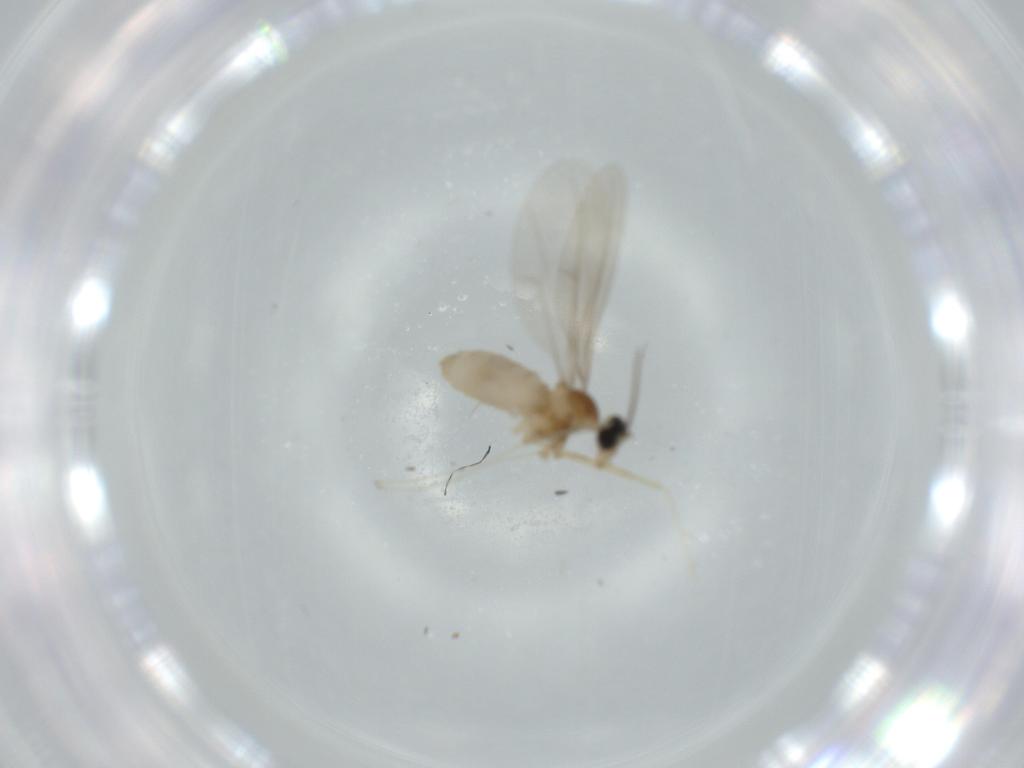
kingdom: Animalia
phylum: Arthropoda
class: Insecta
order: Diptera
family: Cecidomyiidae
